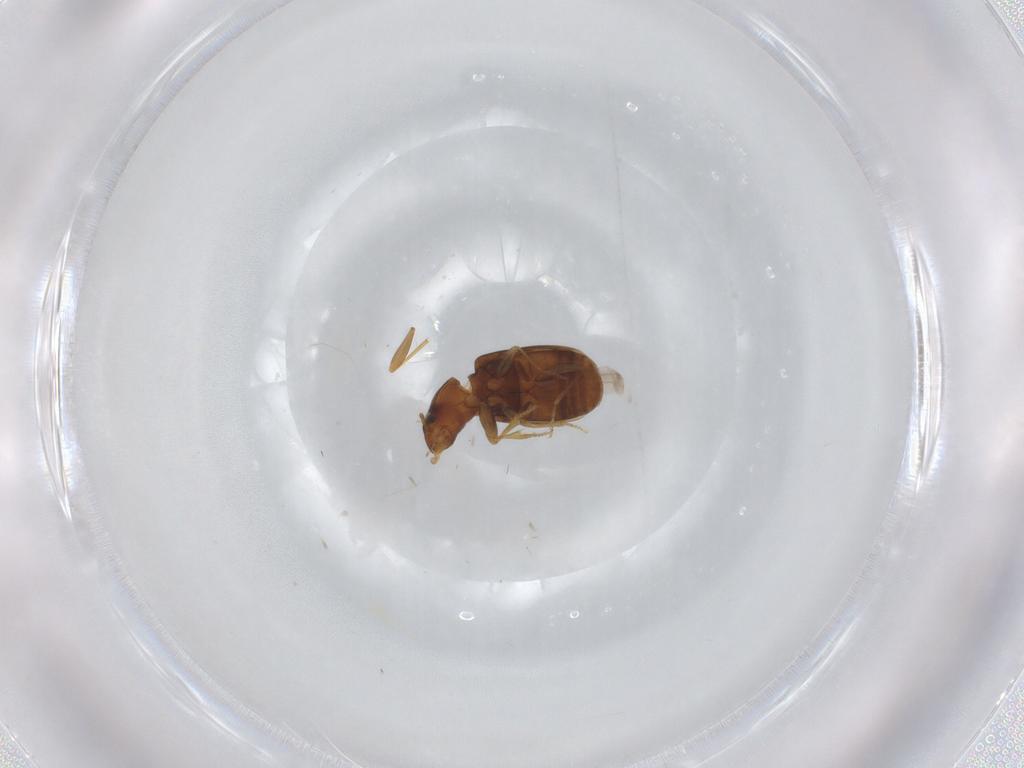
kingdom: Animalia
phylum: Arthropoda
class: Insecta
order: Coleoptera
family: Carabidae
